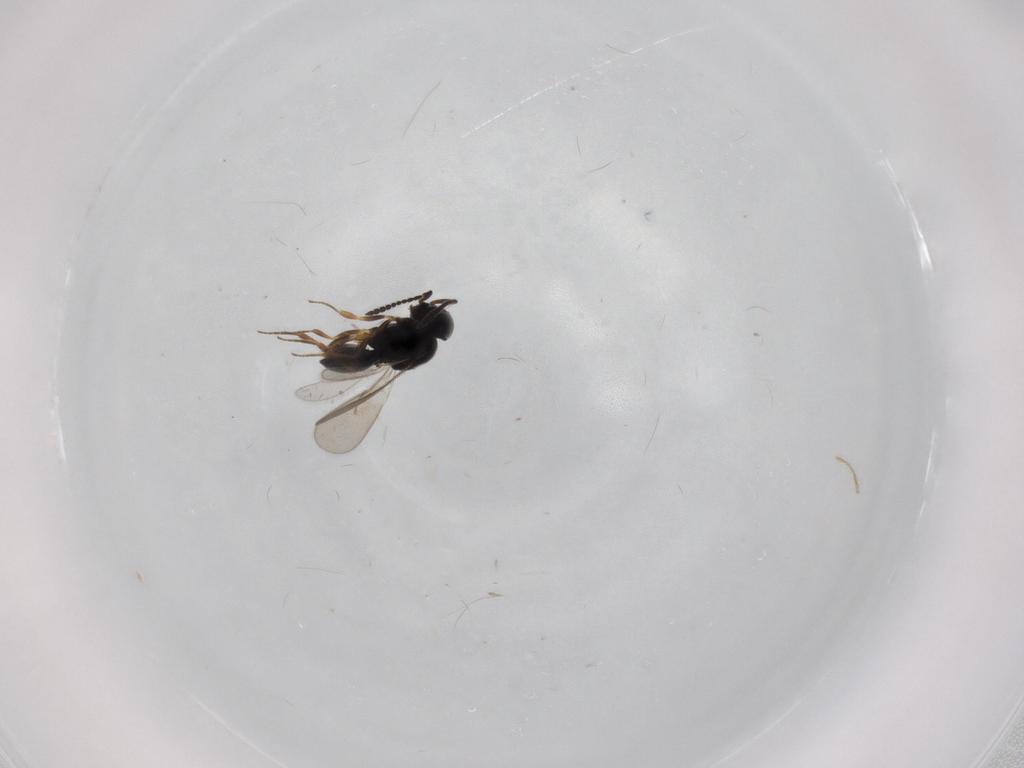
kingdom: Animalia
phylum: Arthropoda
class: Insecta
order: Hymenoptera
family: Scelionidae
